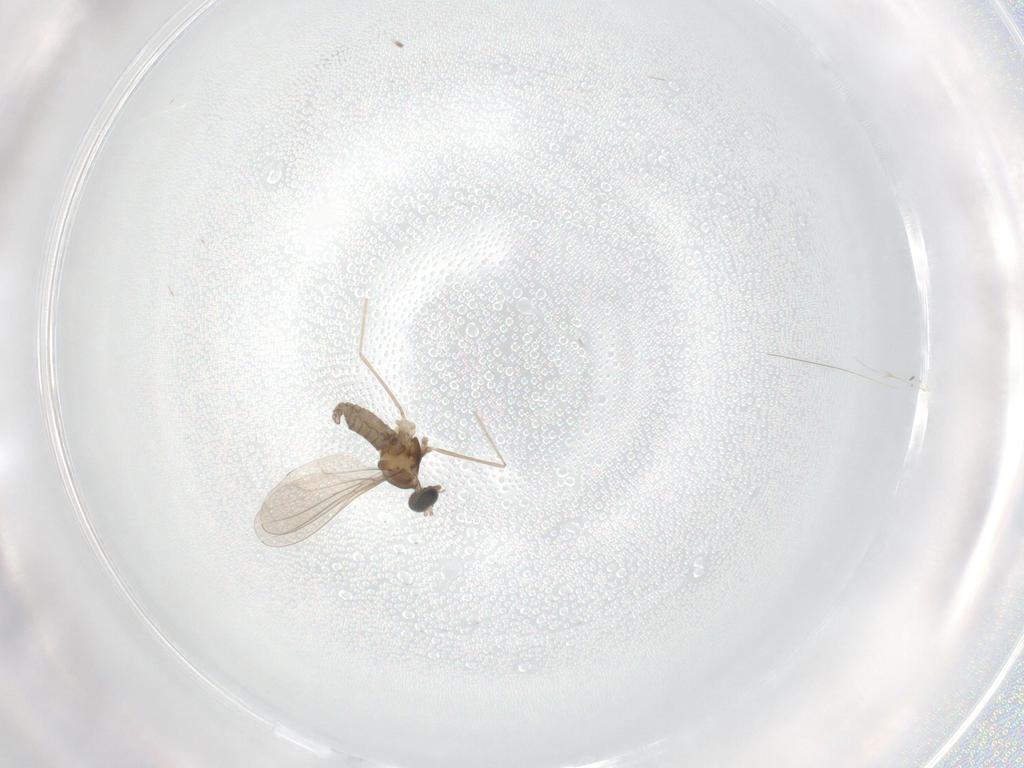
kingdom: Animalia
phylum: Arthropoda
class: Insecta
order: Diptera
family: Cecidomyiidae
